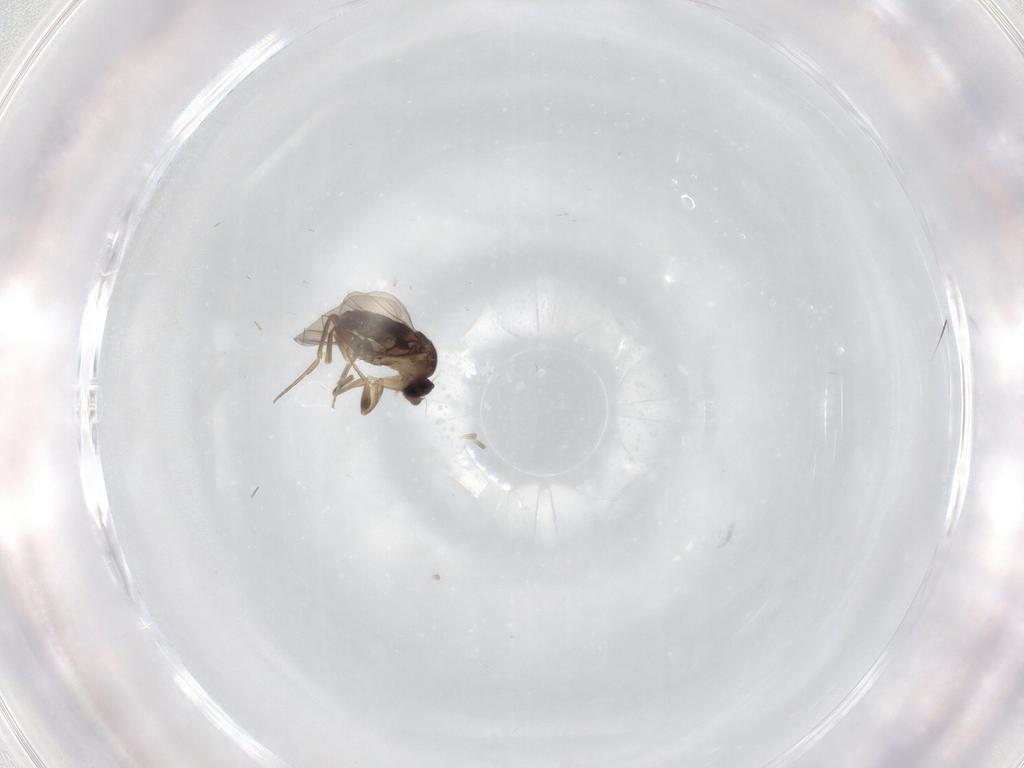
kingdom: Animalia
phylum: Arthropoda
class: Insecta
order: Diptera
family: Phoridae
